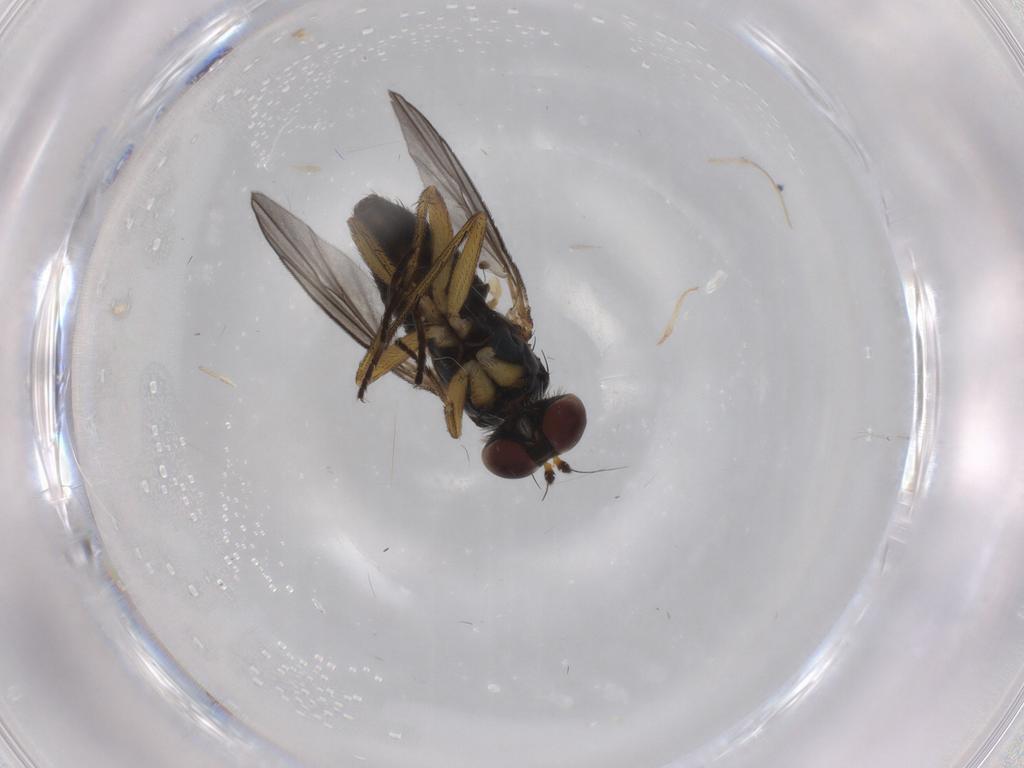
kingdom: Animalia
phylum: Arthropoda
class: Insecta
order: Diptera
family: Dolichopodidae
